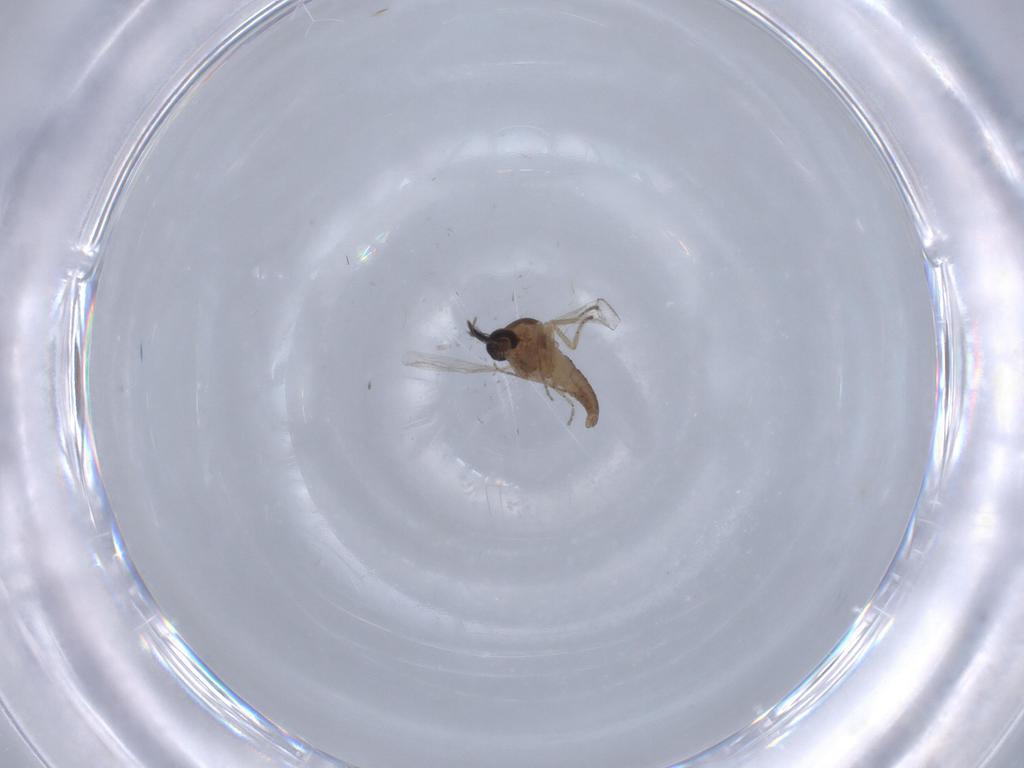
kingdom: Animalia
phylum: Arthropoda
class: Insecta
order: Diptera
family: Ceratopogonidae
